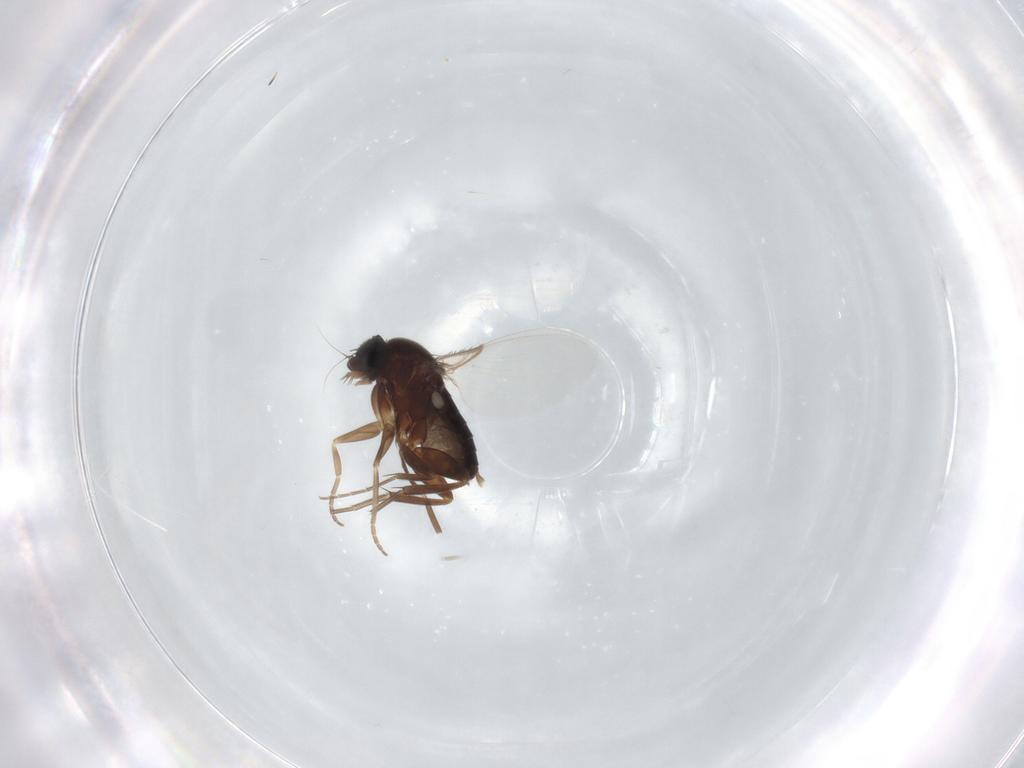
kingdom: Animalia
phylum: Arthropoda
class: Insecta
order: Diptera
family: Phoridae
